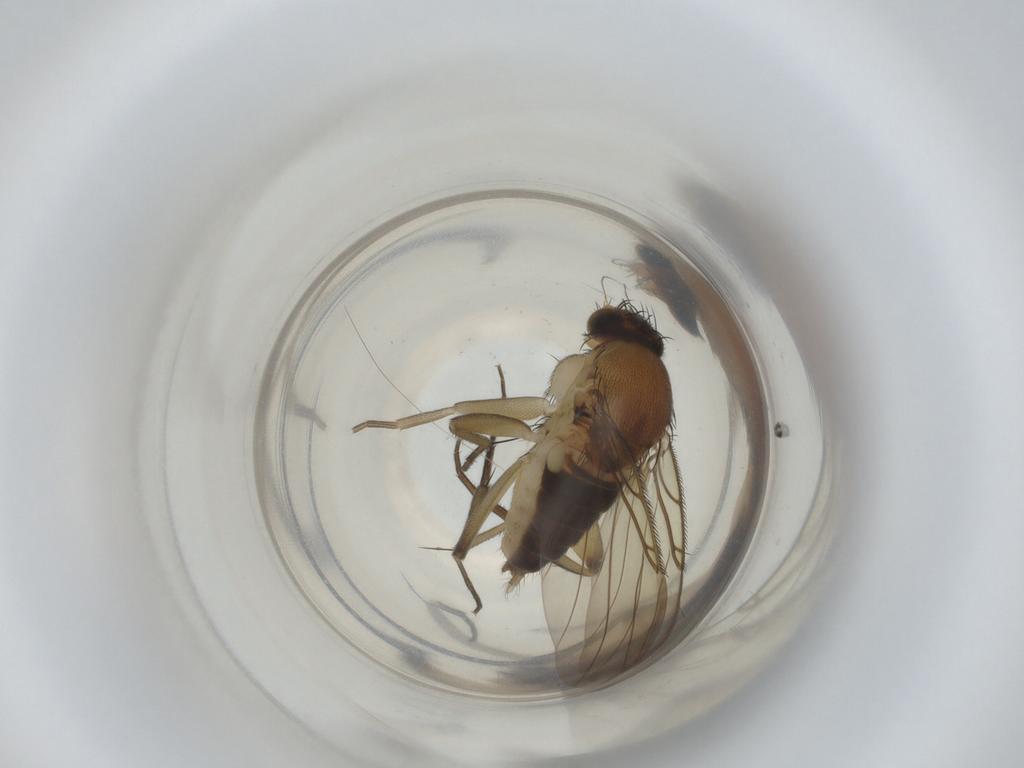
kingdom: Animalia
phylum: Arthropoda
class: Insecta
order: Diptera
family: Phoridae
